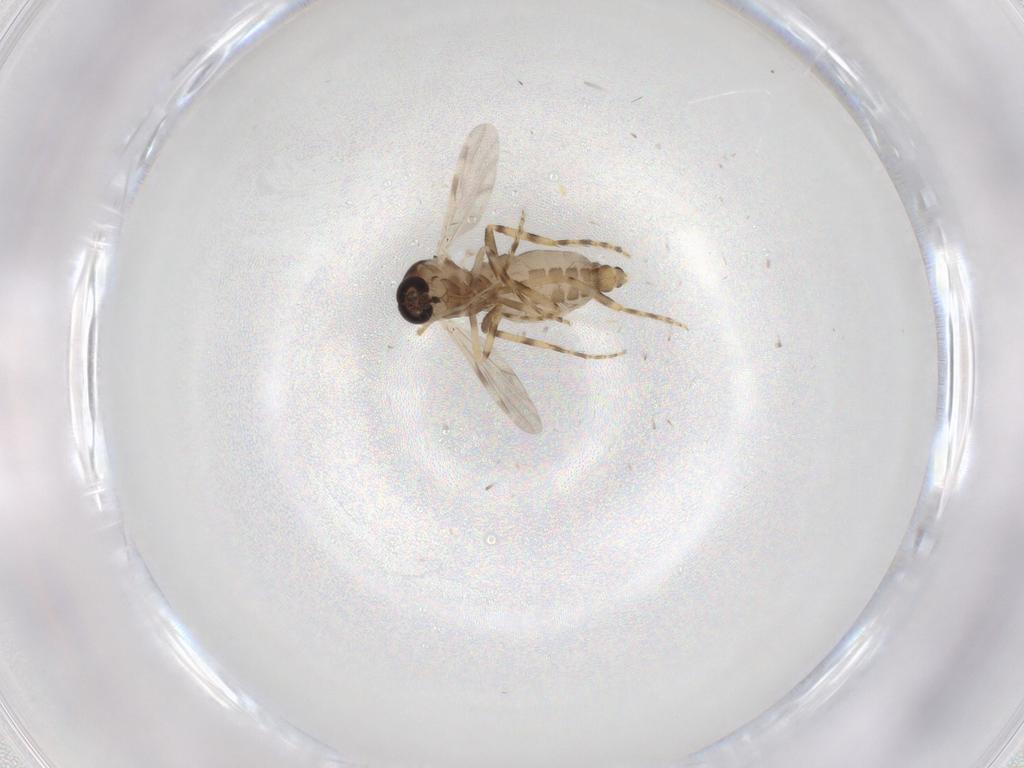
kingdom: Animalia
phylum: Arthropoda
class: Insecta
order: Diptera
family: Ceratopogonidae
